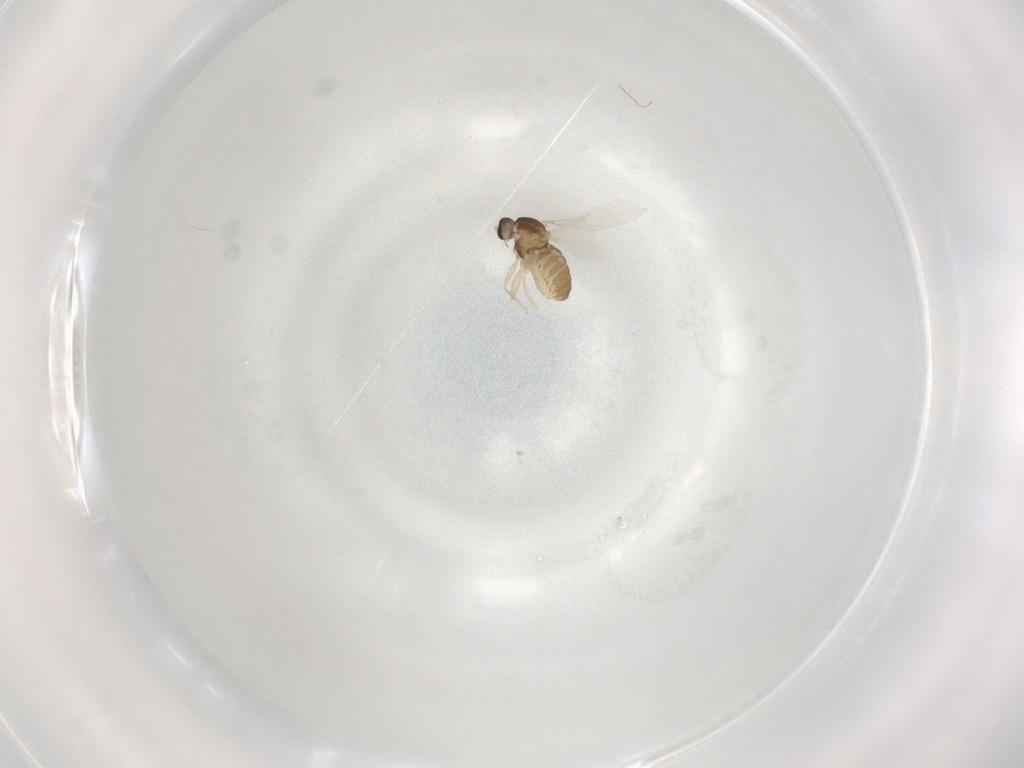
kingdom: Animalia
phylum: Arthropoda
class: Insecta
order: Diptera
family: Cecidomyiidae
